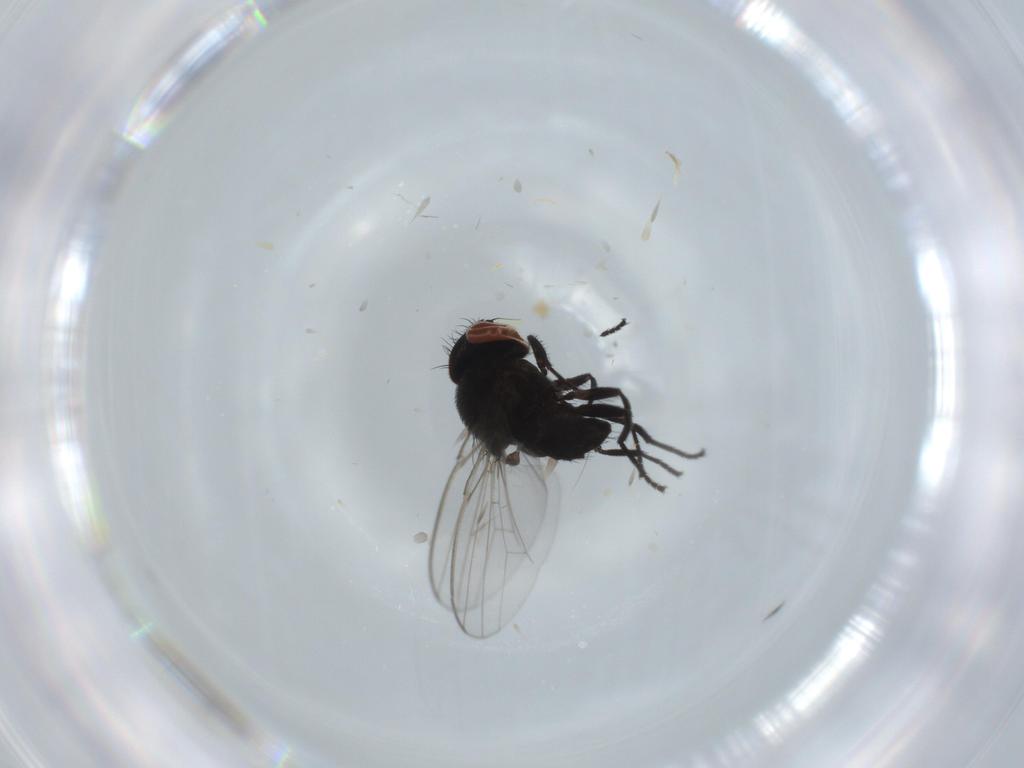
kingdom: Animalia
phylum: Arthropoda
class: Insecta
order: Diptera
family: Milichiidae
